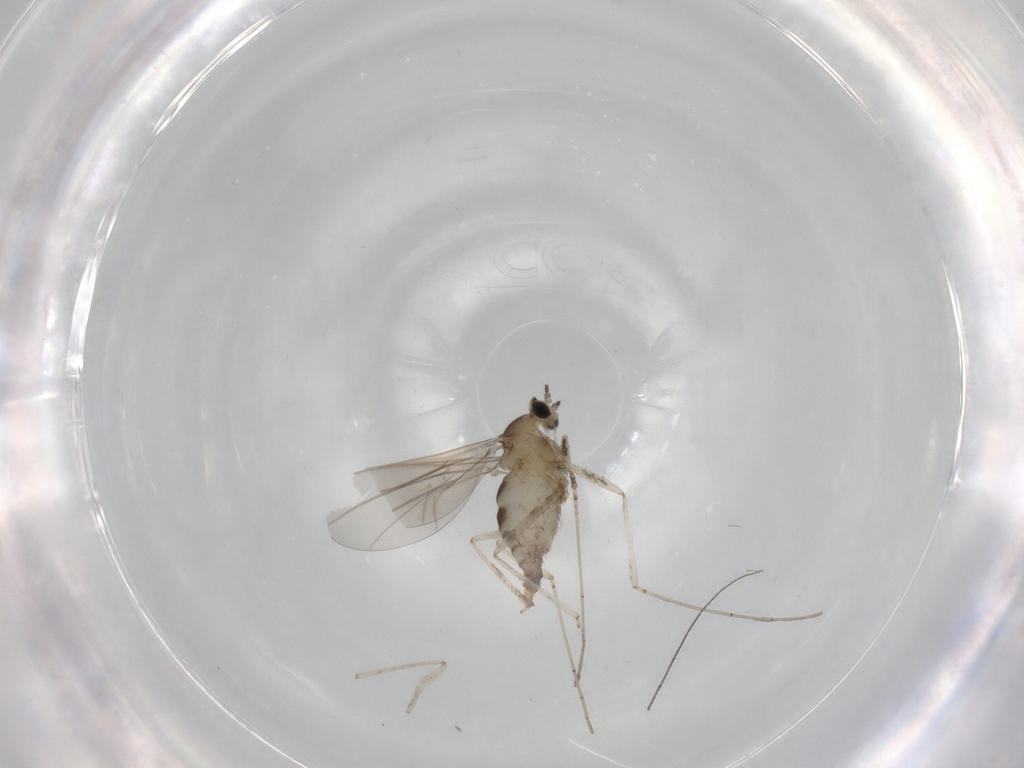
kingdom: Animalia
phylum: Arthropoda
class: Insecta
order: Diptera
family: Cecidomyiidae
